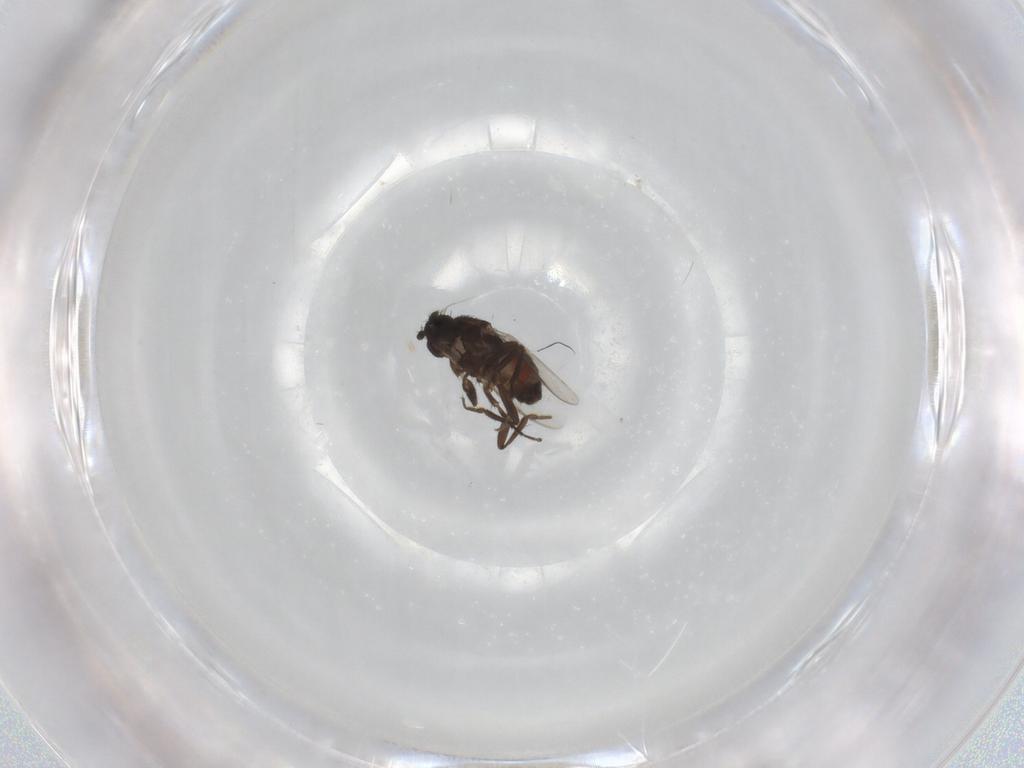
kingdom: Animalia
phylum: Arthropoda
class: Insecta
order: Diptera
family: Sphaeroceridae
